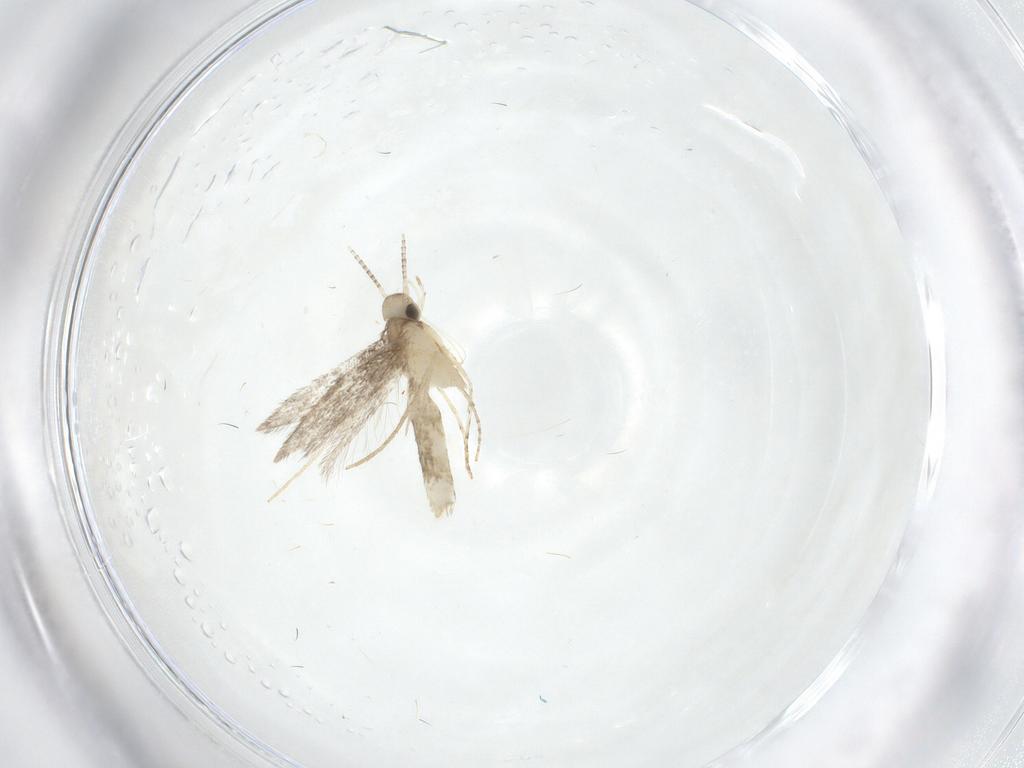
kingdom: Animalia
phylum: Arthropoda
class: Insecta
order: Lepidoptera
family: Gracillariidae
